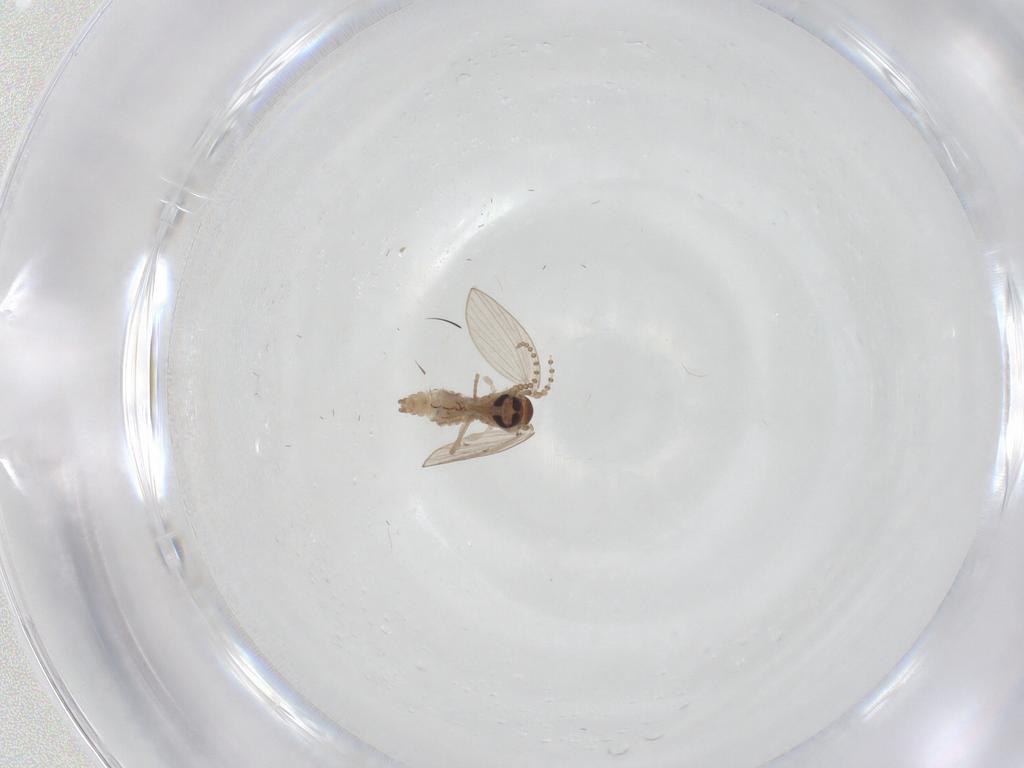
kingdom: Animalia
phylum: Arthropoda
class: Insecta
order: Diptera
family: Psychodidae
